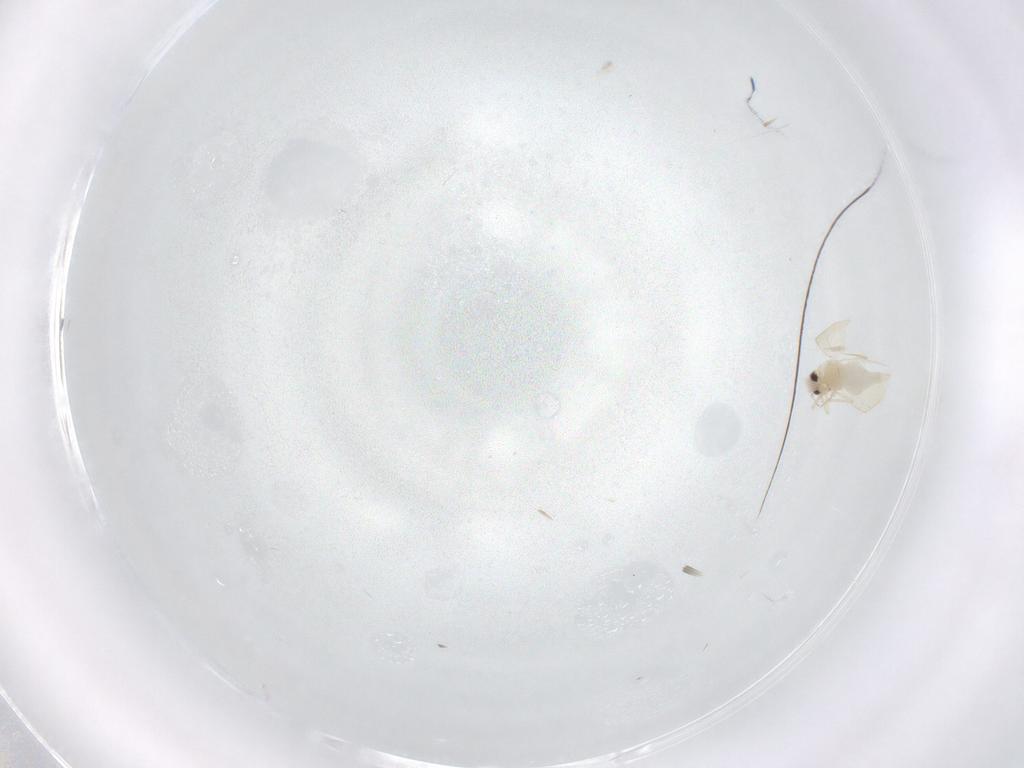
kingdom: Animalia
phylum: Arthropoda
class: Insecta
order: Hemiptera
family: Aleyrodidae
